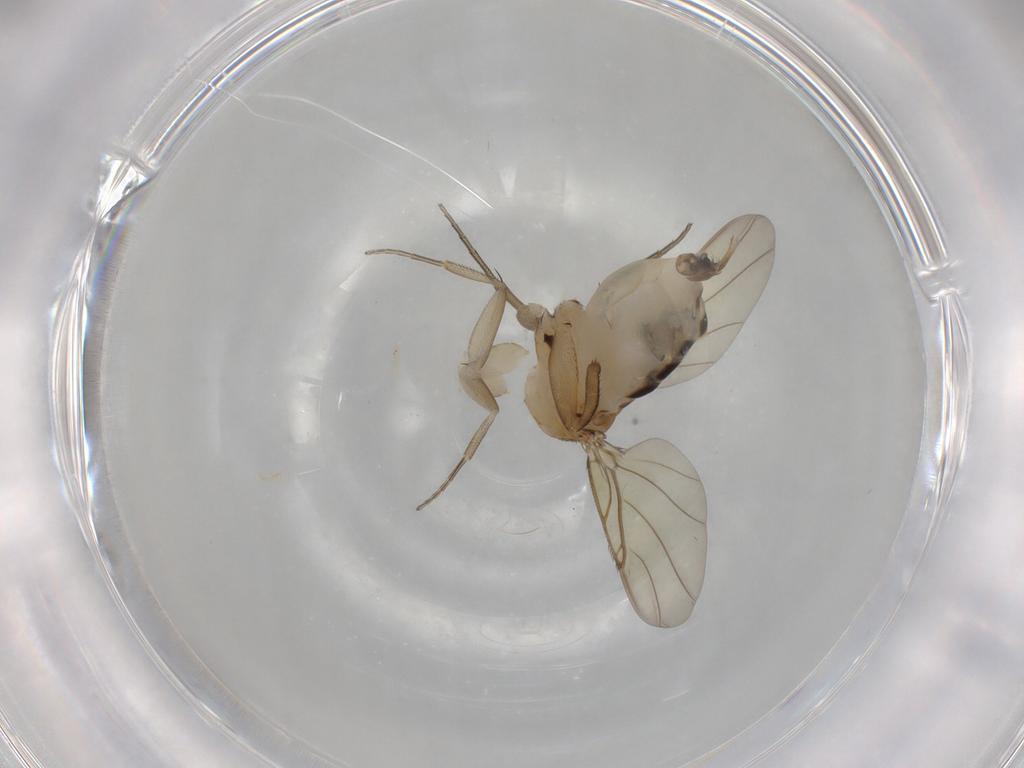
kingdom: Animalia
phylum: Arthropoda
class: Insecta
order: Diptera
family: Phoridae
